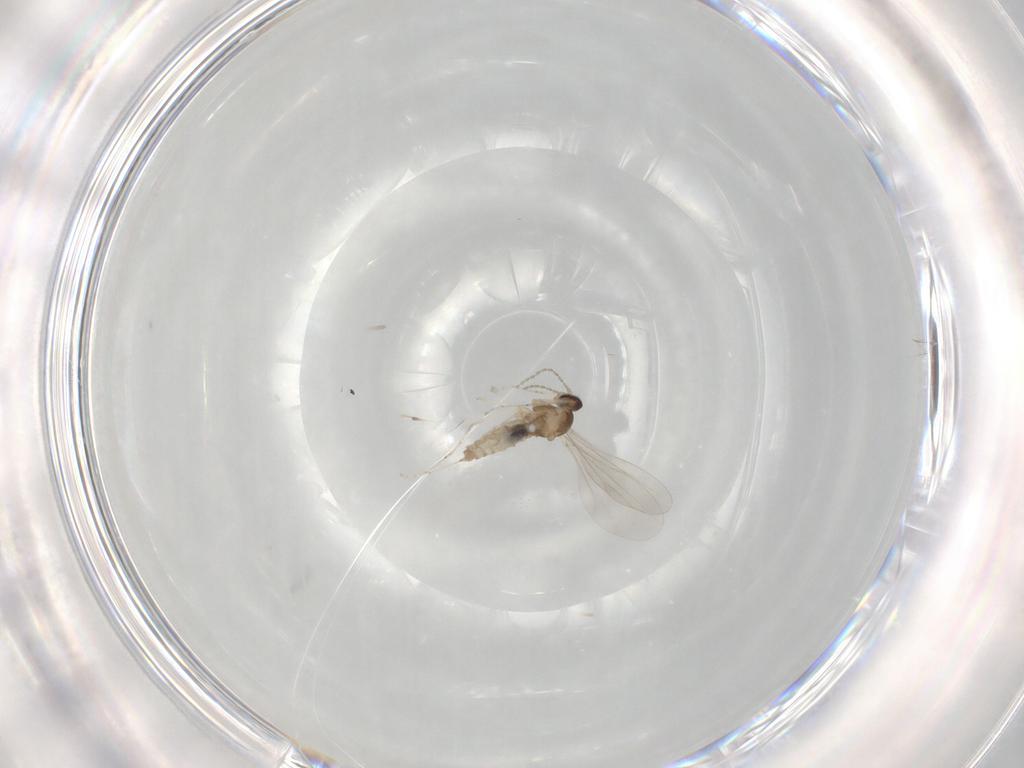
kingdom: Animalia
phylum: Arthropoda
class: Insecta
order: Diptera
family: Cecidomyiidae
